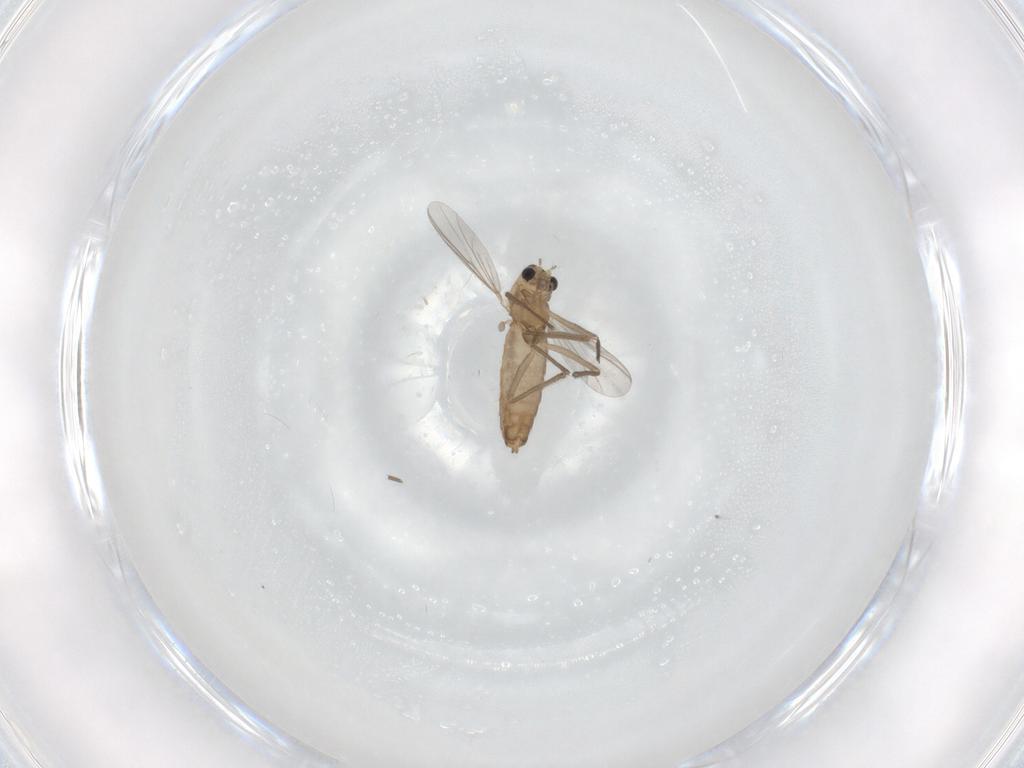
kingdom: Animalia
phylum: Arthropoda
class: Insecta
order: Diptera
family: Chironomidae
